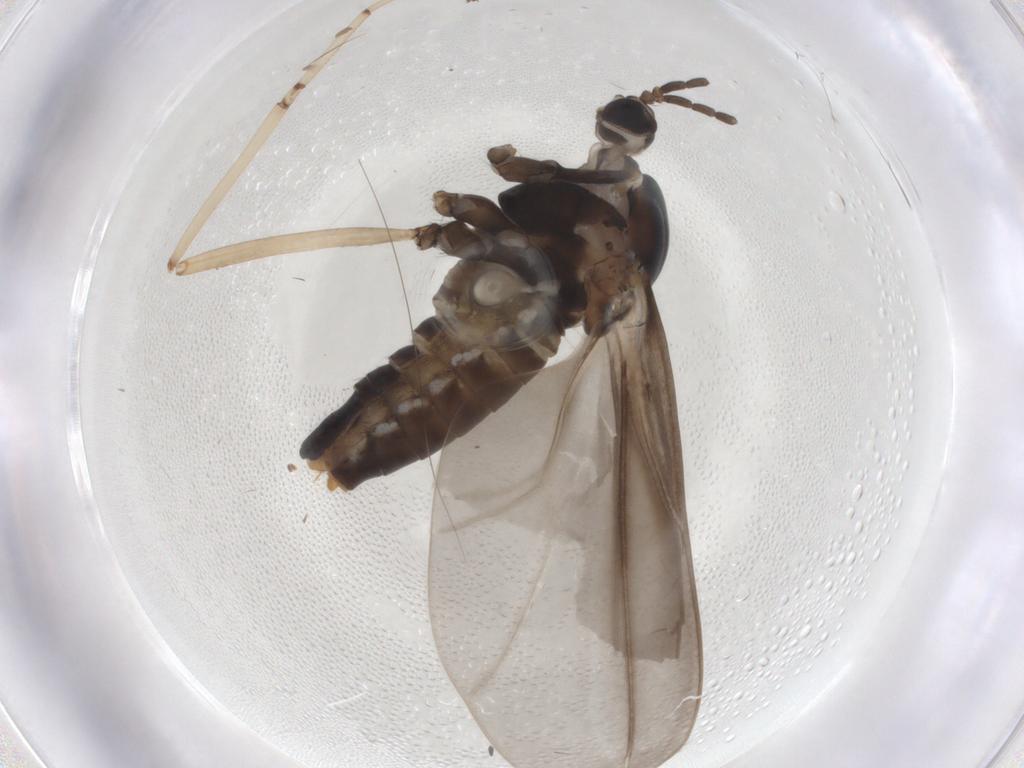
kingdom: Animalia
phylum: Arthropoda
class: Insecta
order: Diptera
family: Cecidomyiidae
